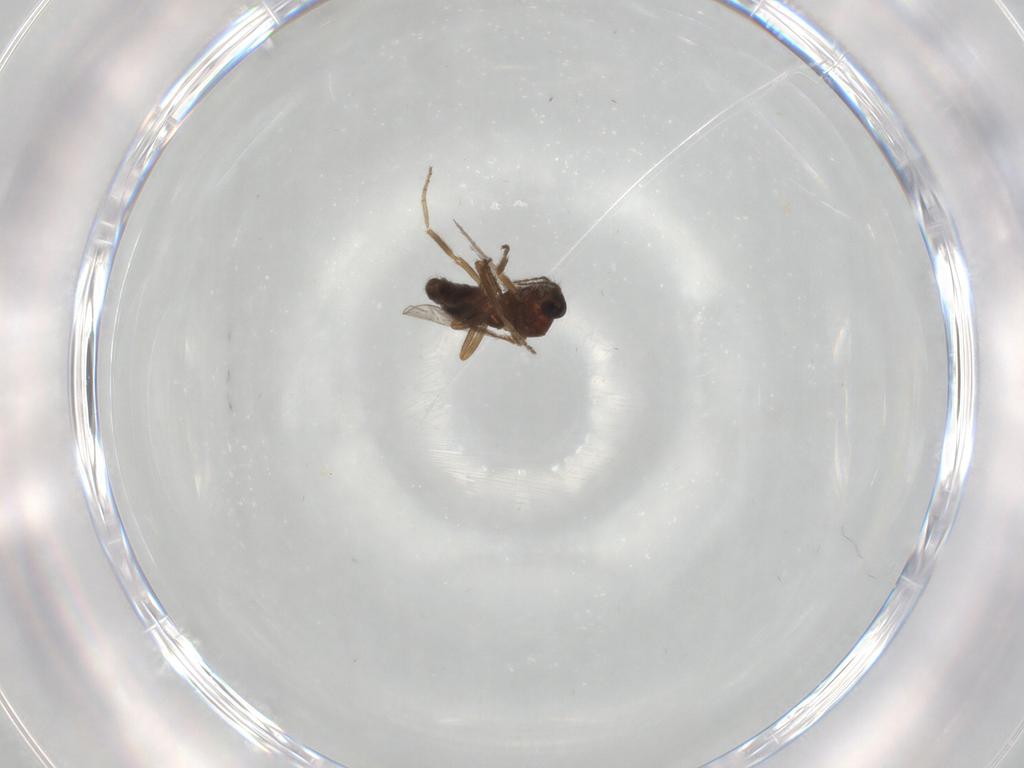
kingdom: Animalia
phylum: Arthropoda
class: Insecta
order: Diptera
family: Ceratopogonidae
